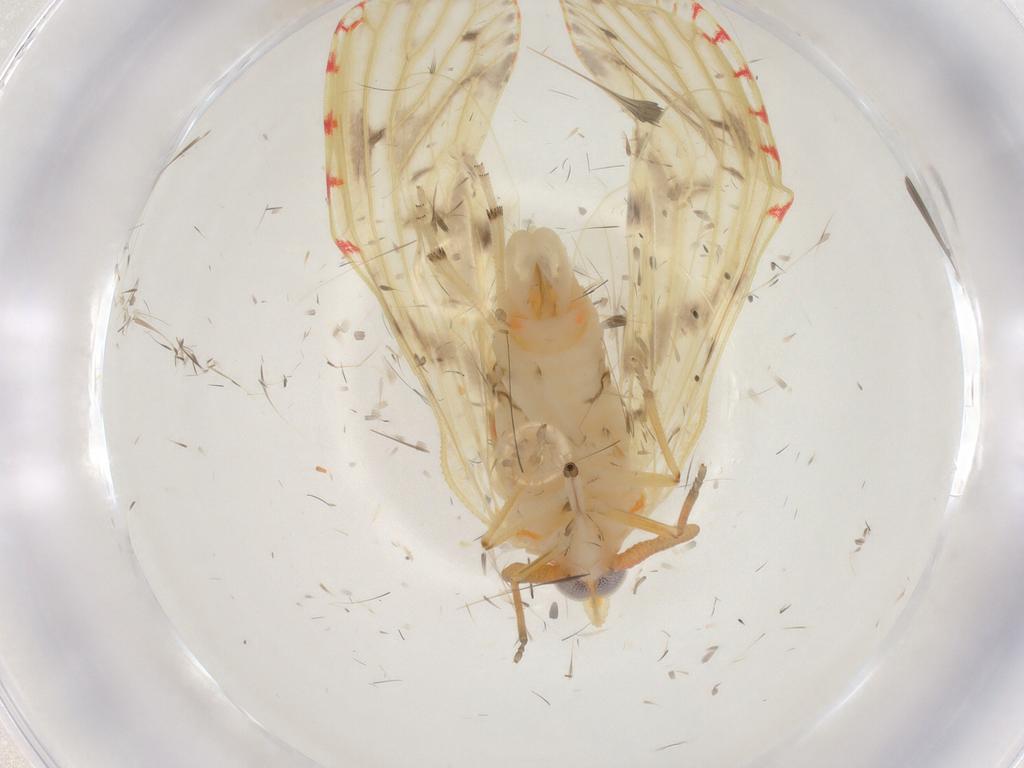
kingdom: Animalia
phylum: Arthropoda
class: Insecta
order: Hemiptera
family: Derbidae
